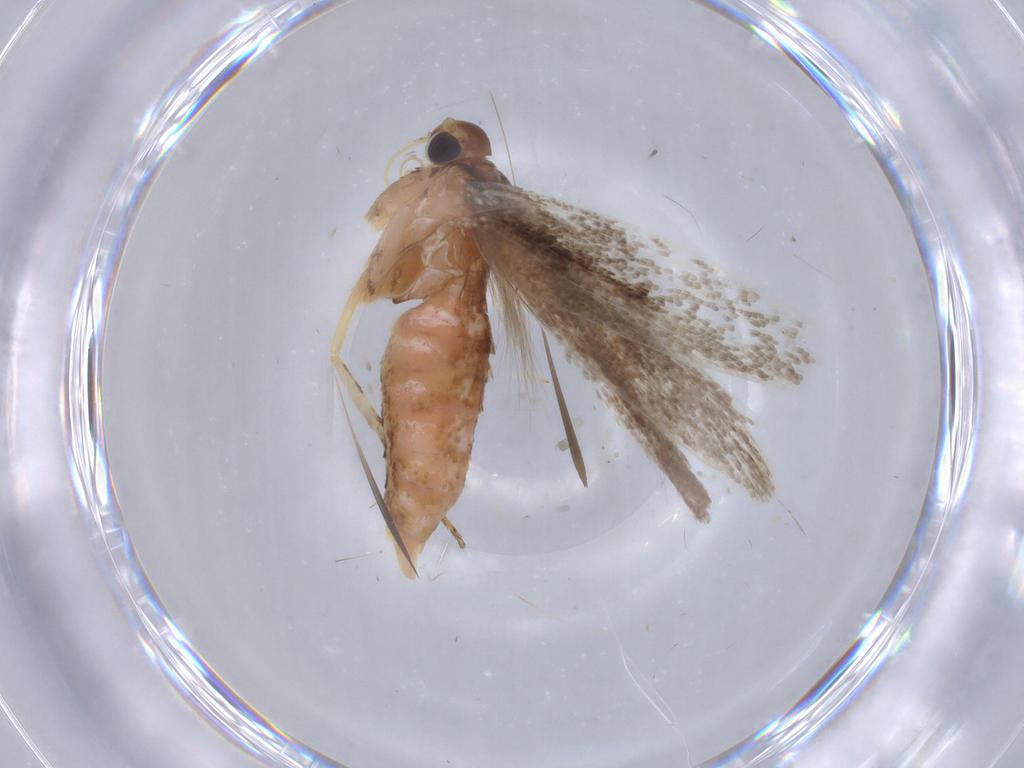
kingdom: Animalia
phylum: Arthropoda
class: Insecta
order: Lepidoptera
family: Gelechiidae
